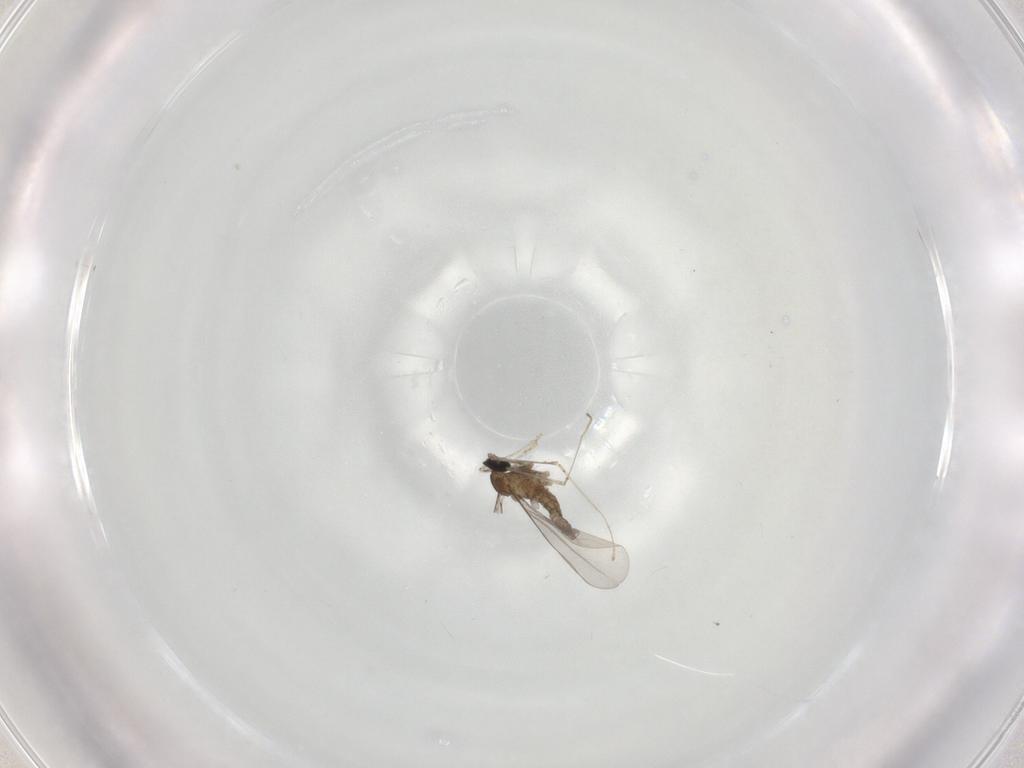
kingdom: Animalia
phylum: Arthropoda
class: Insecta
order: Diptera
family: Cecidomyiidae
